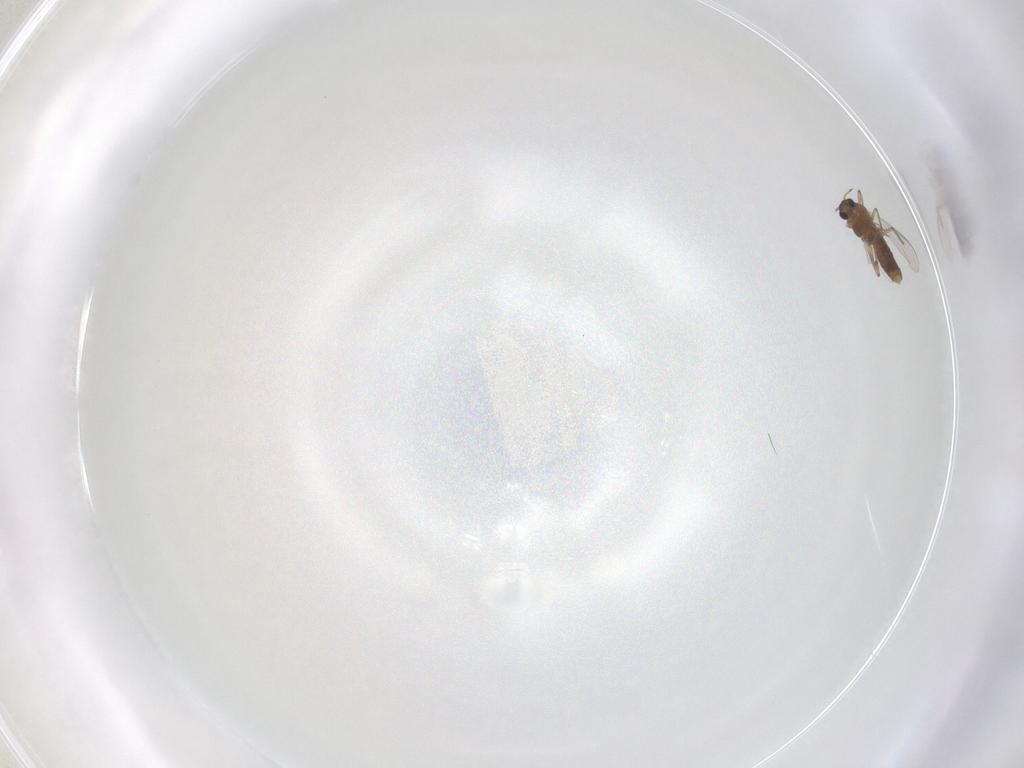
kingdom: Animalia
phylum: Arthropoda
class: Insecta
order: Diptera
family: Chironomidae
